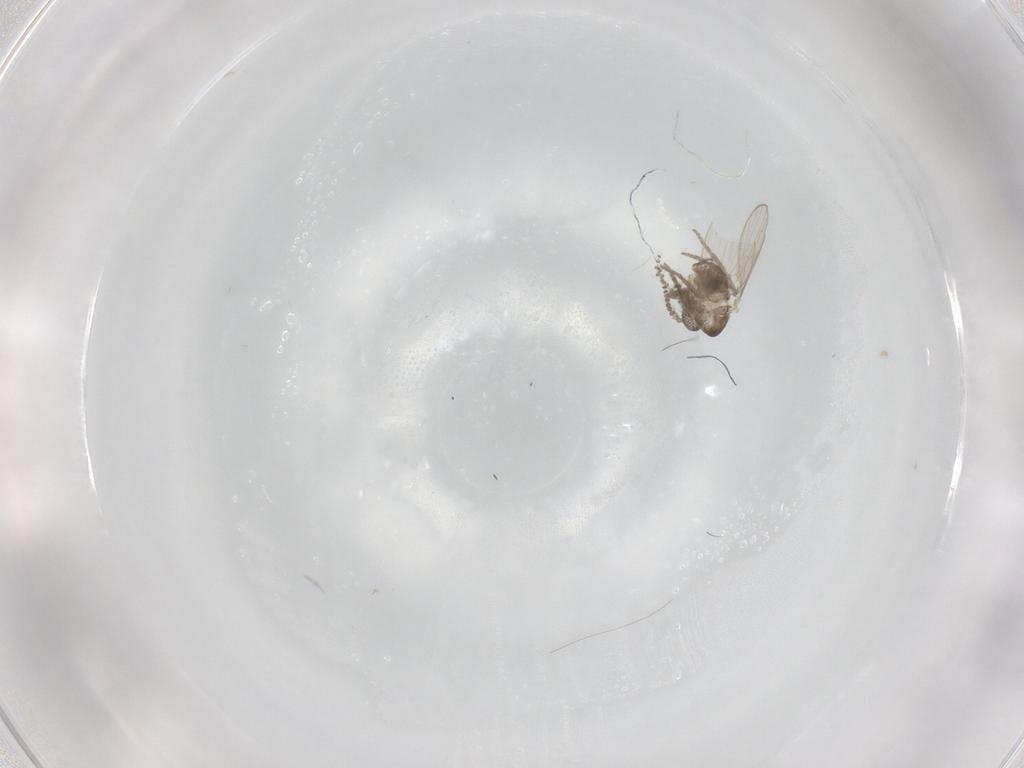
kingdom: Animalia
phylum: Arthropoda
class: Insecta
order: Diptera
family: Psychodidae
